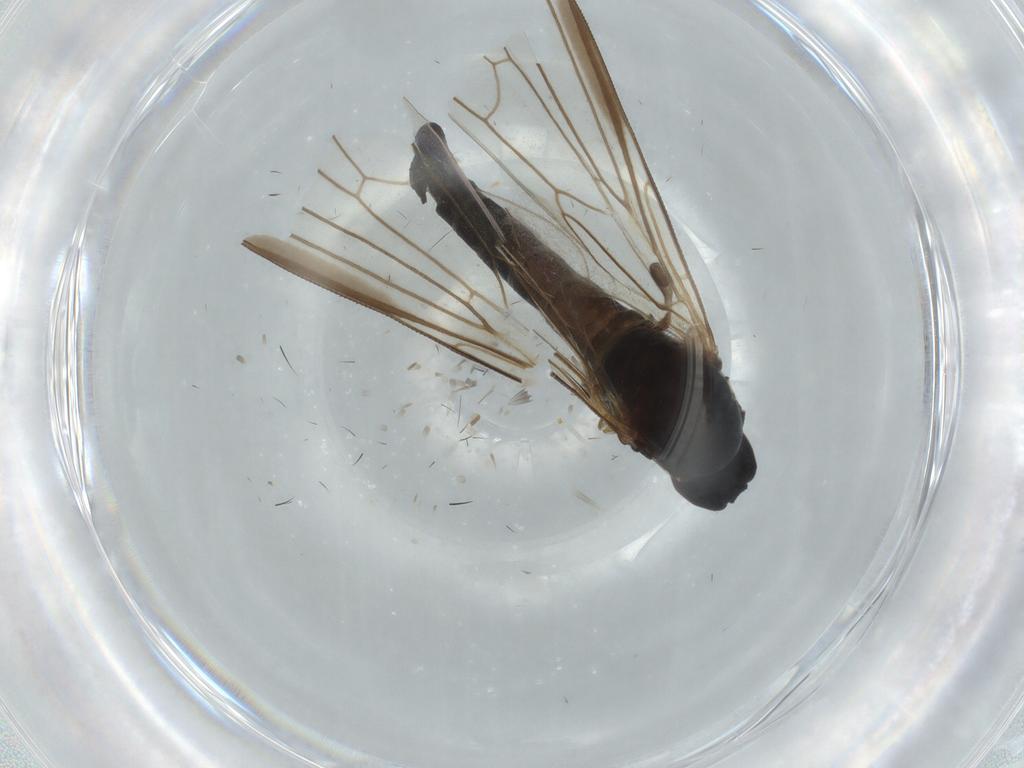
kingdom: Animalia
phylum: Arthropoda
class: Insecta
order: Diptera
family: Empididae
